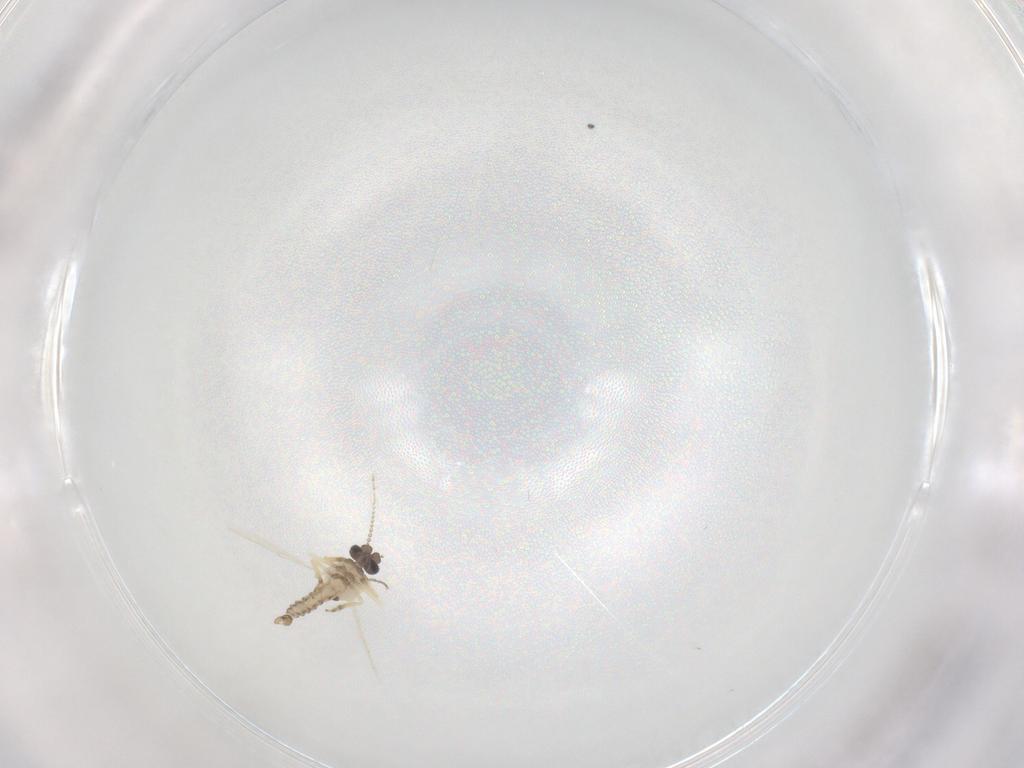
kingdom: Animalia
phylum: Arthropoda
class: Insecta
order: Diptera
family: Ceratopogonidae
